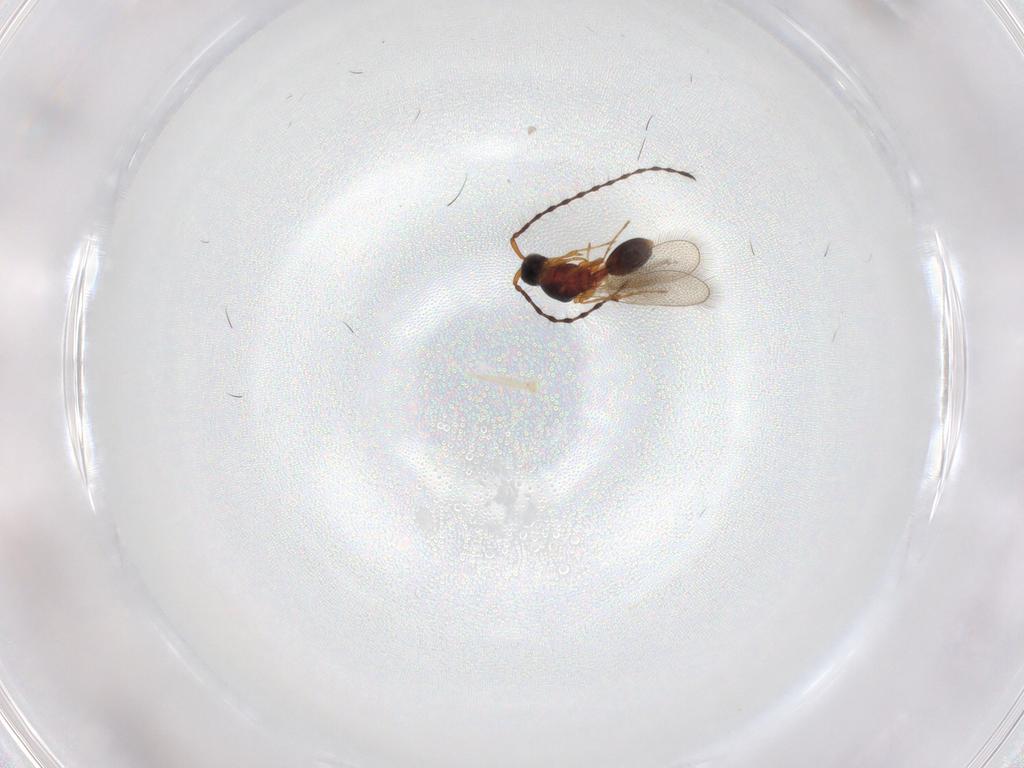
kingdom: Animalia
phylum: Arthropoda
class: Insecta
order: Hymenoptera
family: Diapriidae
